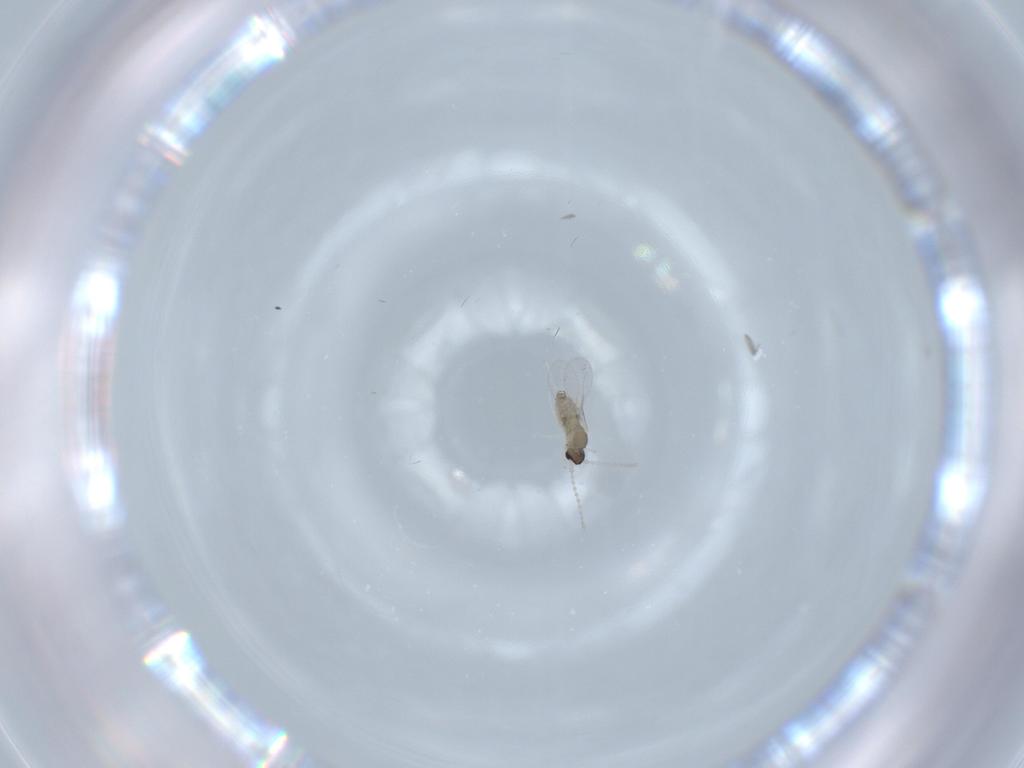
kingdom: Animalia
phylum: Arthropoda
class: Insecta
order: Diptera
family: Cecidomyiidae
